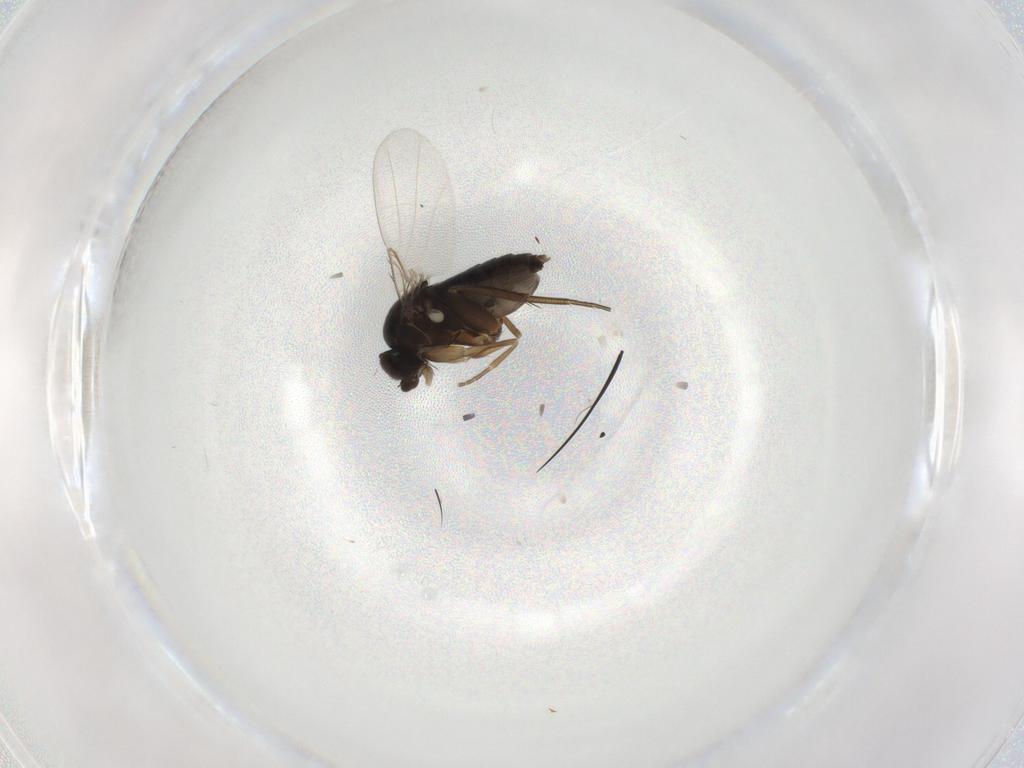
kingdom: Animalia
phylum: Arthropoda
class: Insecta
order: Diptera
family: Phoridae
